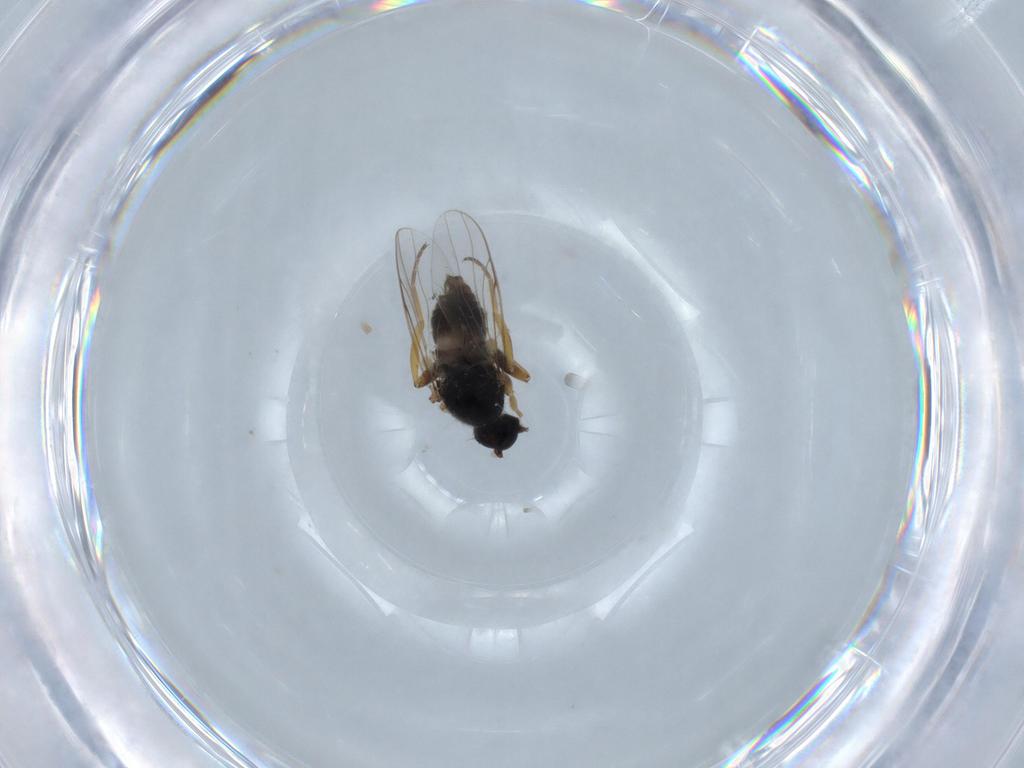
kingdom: Animalia
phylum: Arthropoda
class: Insecta
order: Diptera
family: Hybotidae
